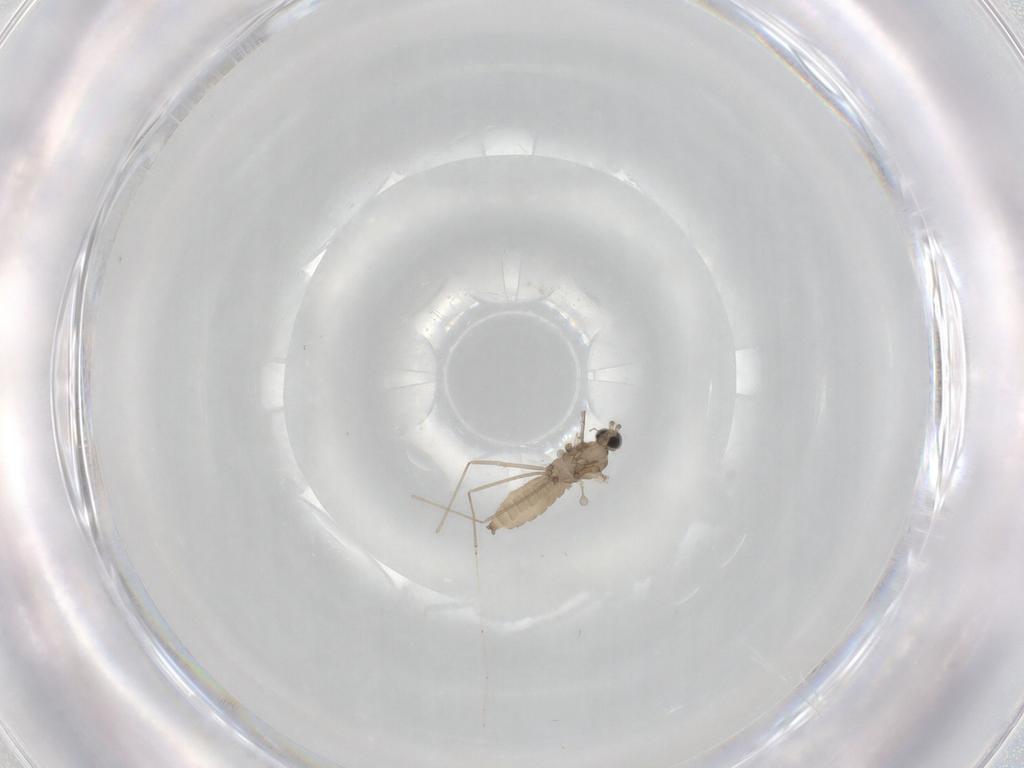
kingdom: Animalia
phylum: Arthropoda
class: Insecta
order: Diptera
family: Cecidomyiidae
